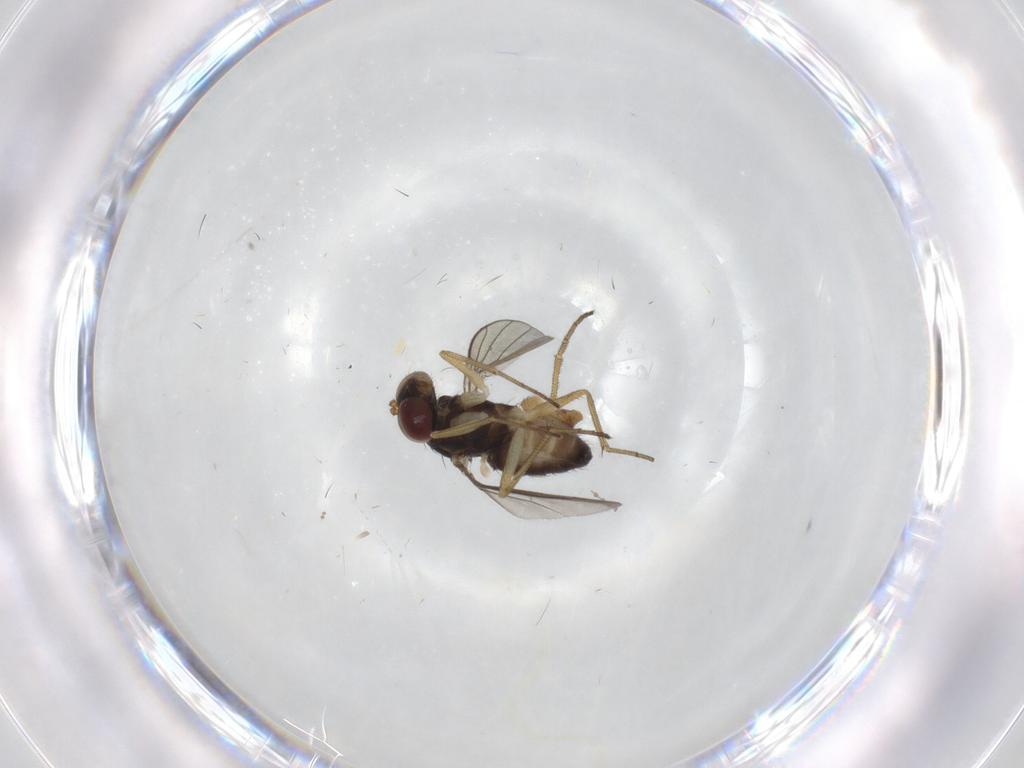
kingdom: Animalia
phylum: Arthropoda
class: Insecta
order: Diptera
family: Dolichopodidae
